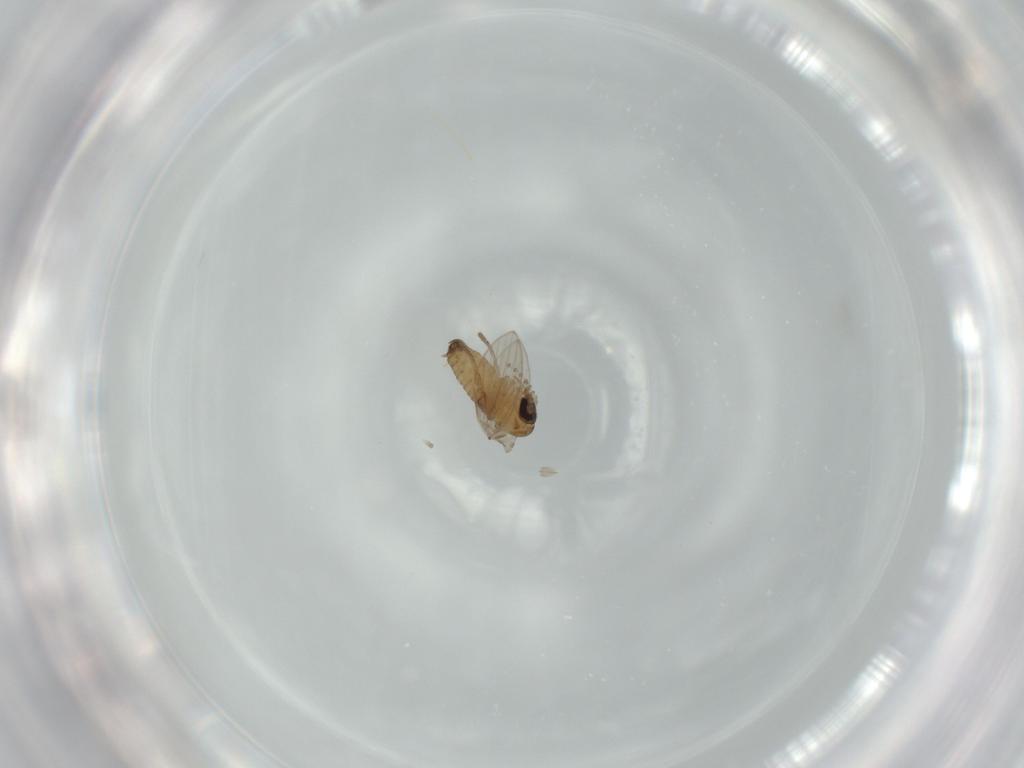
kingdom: Animalia
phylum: Arthropoda
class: Insecta
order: Diptera
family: Psychodidae
